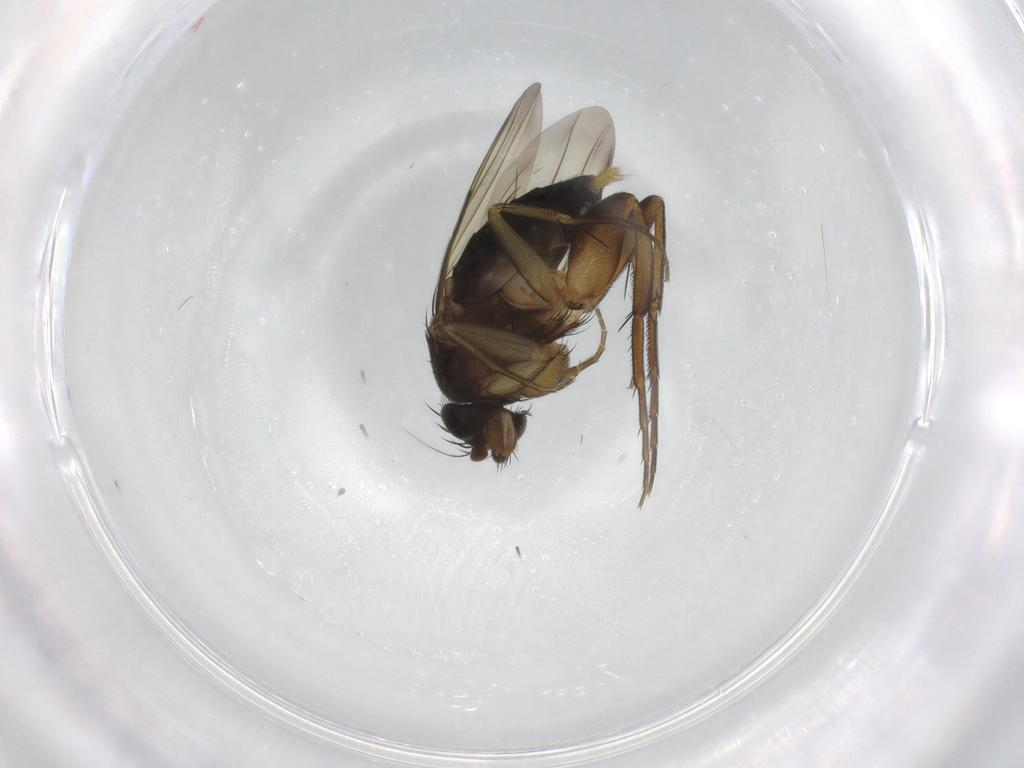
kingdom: Animalia
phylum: Arthropoda
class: Insecta
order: Diptera
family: Phoridae
